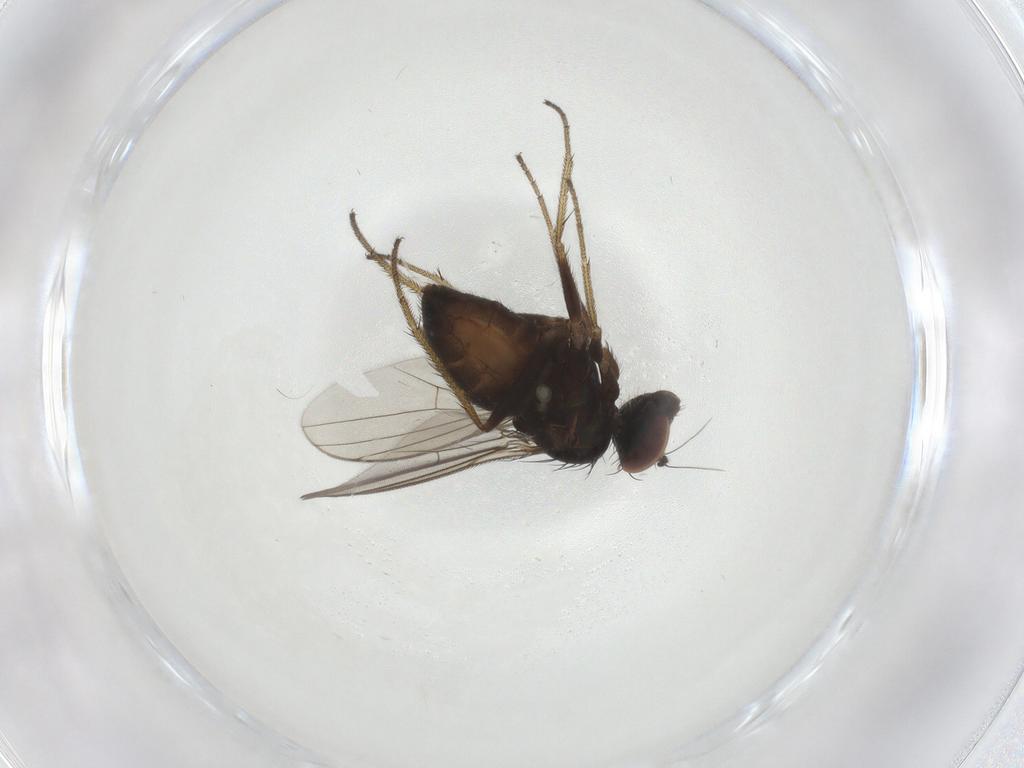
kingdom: Animalia
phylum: Arthropoda
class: Insecta
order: Diptera
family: Phoridae
